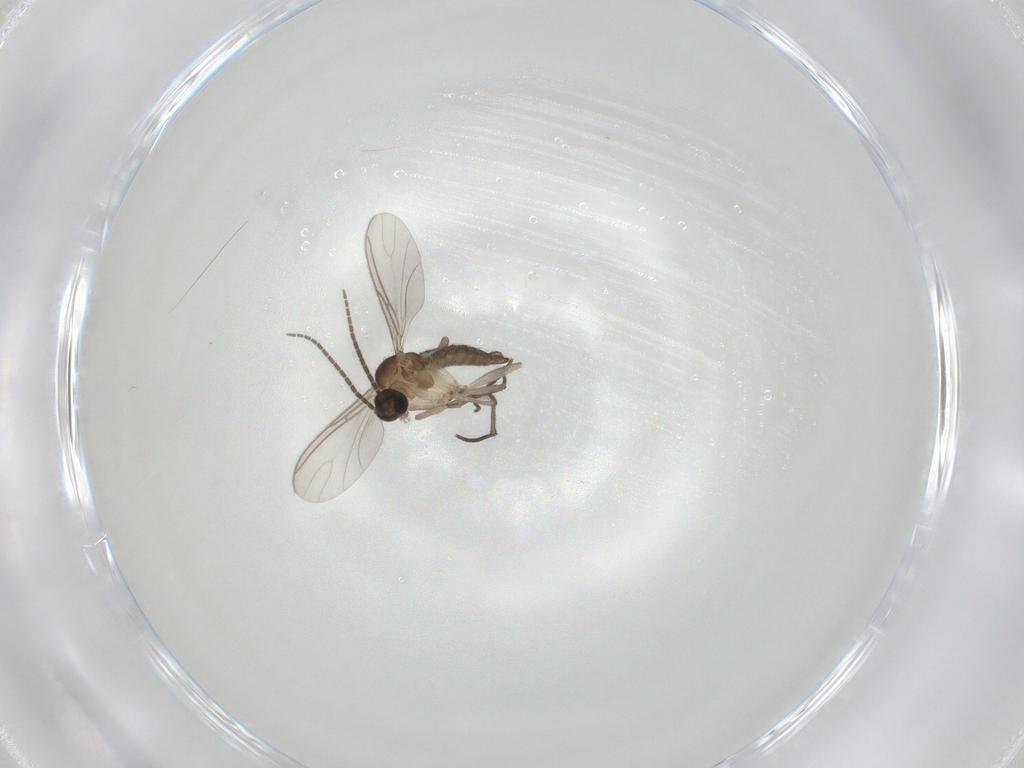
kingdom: Animalia
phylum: Arthropoda
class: Insecta
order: Diptera
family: Sciaridae
